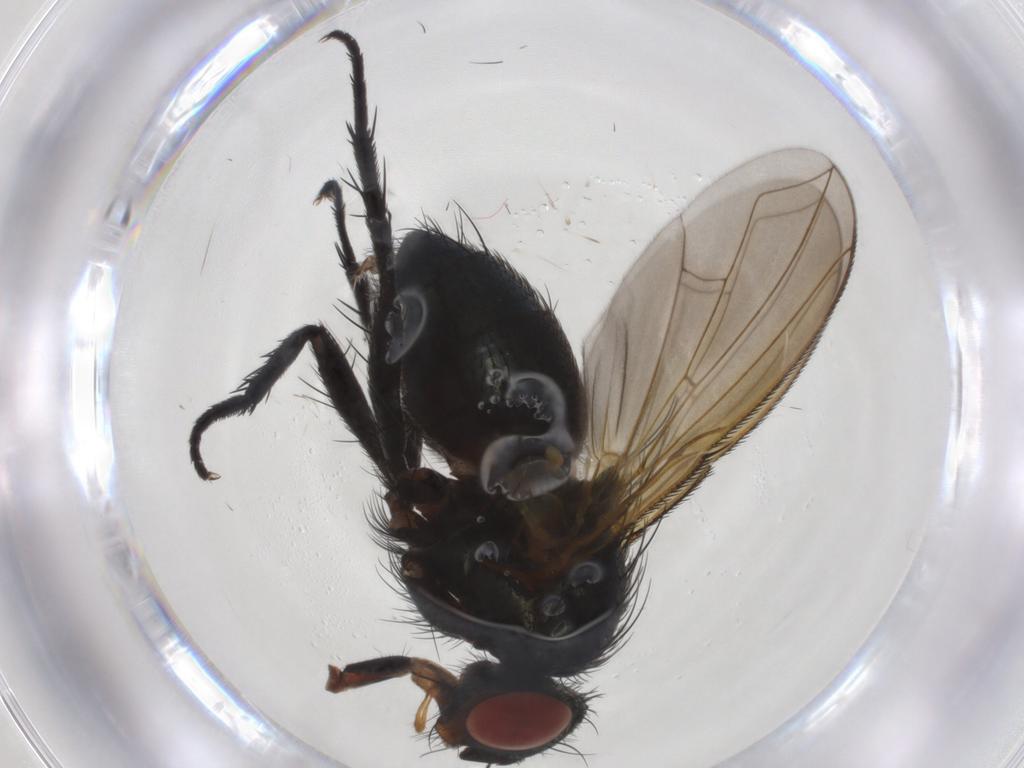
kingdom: Animalia
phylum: Arthropoda
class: Insecta
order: Diptera
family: Calliphoridae
